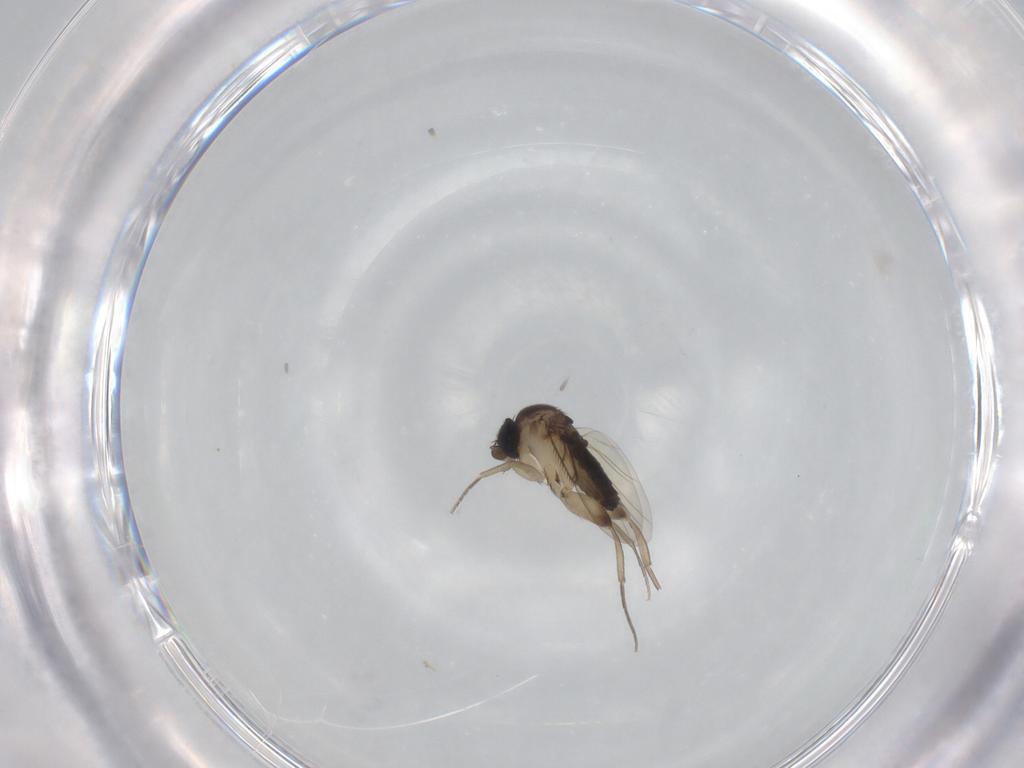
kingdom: Animalia
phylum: Arthropoda
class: Insecta
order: Diptera
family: Phoridae
